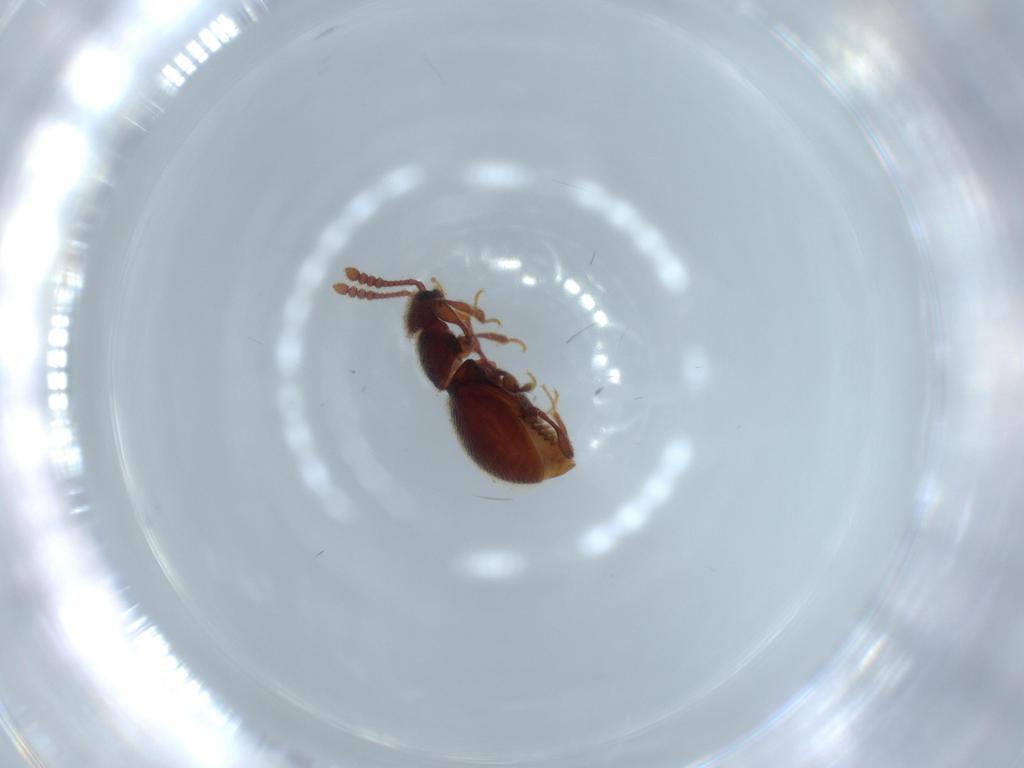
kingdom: Animalia
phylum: Arthropoda
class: Insecta
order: Coleoptera
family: Staphylinidae
